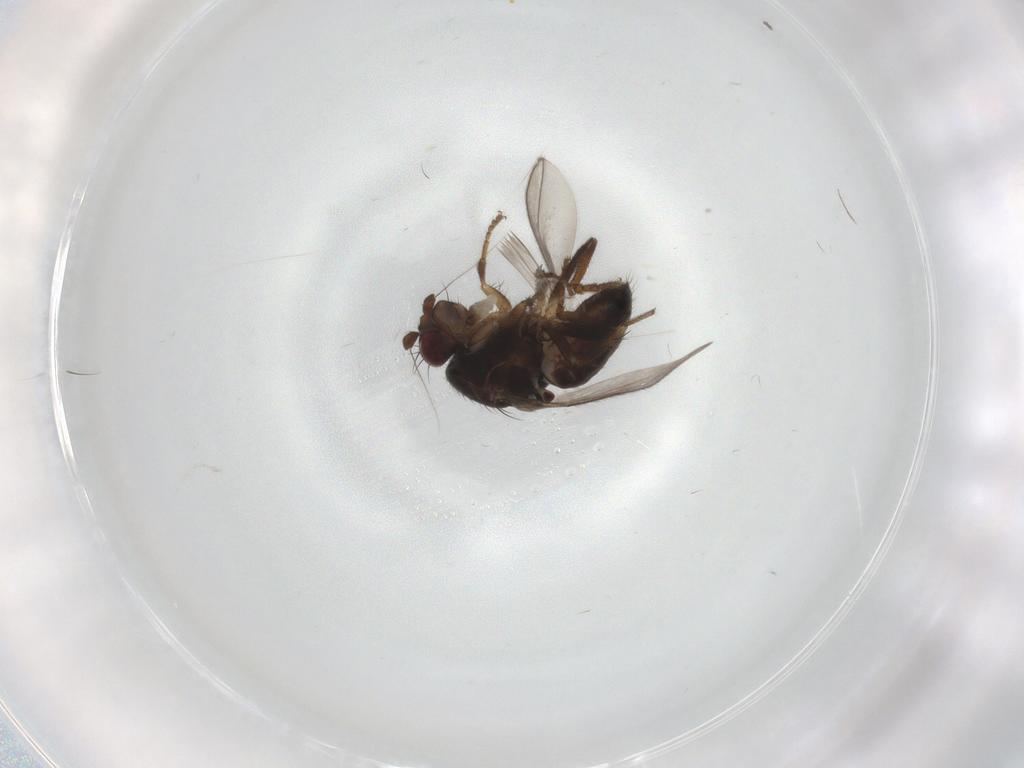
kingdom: Animalia
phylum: Arthropoda
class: Insecta
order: Diptera
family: Sphaeroceridae
